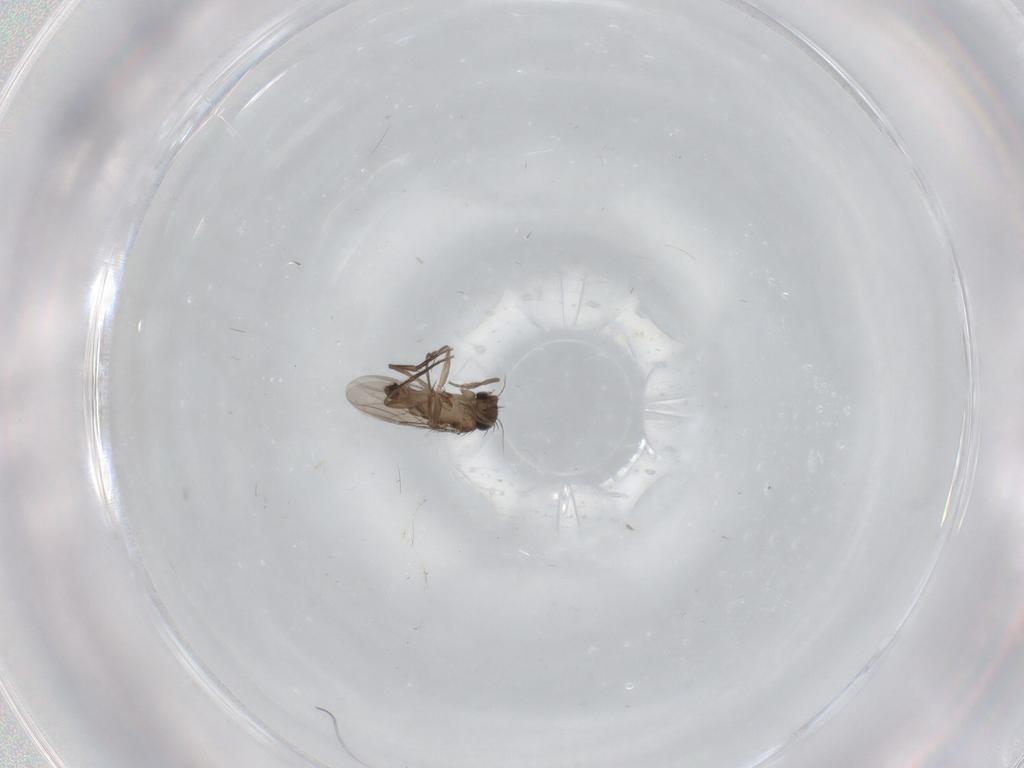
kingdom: Animalia
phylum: Arthropoda
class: Insecta
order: Diptera
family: Phoridae
